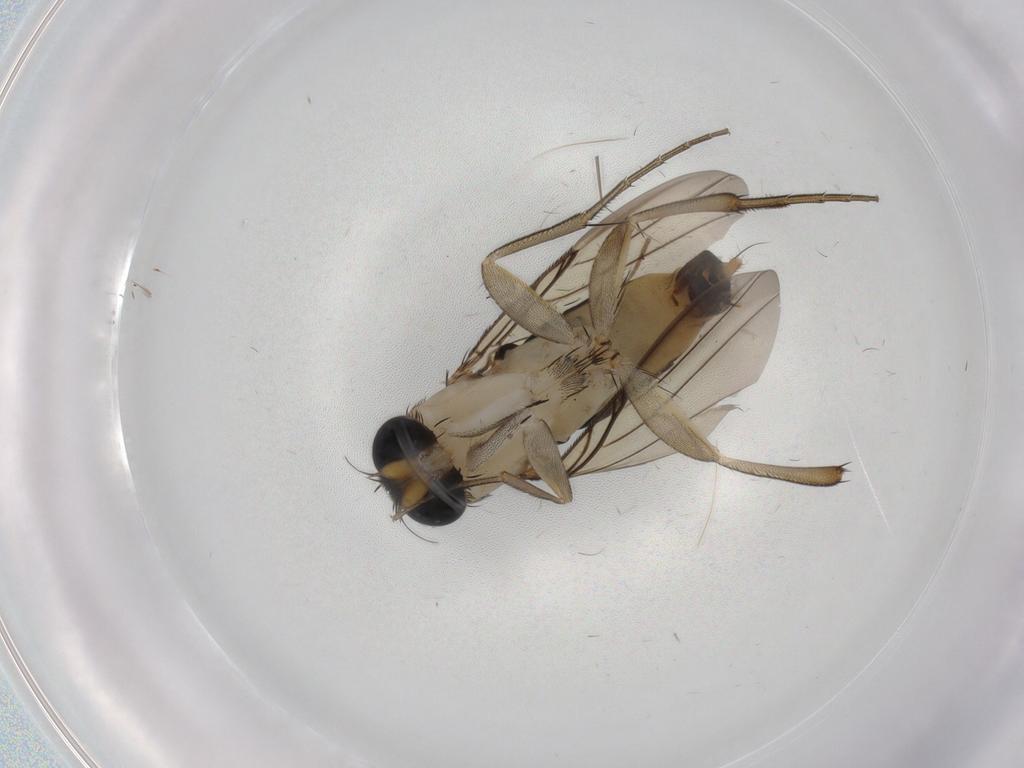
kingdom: Animalia
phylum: Arthropoda
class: Insecta
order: Diptera
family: Phoridae
